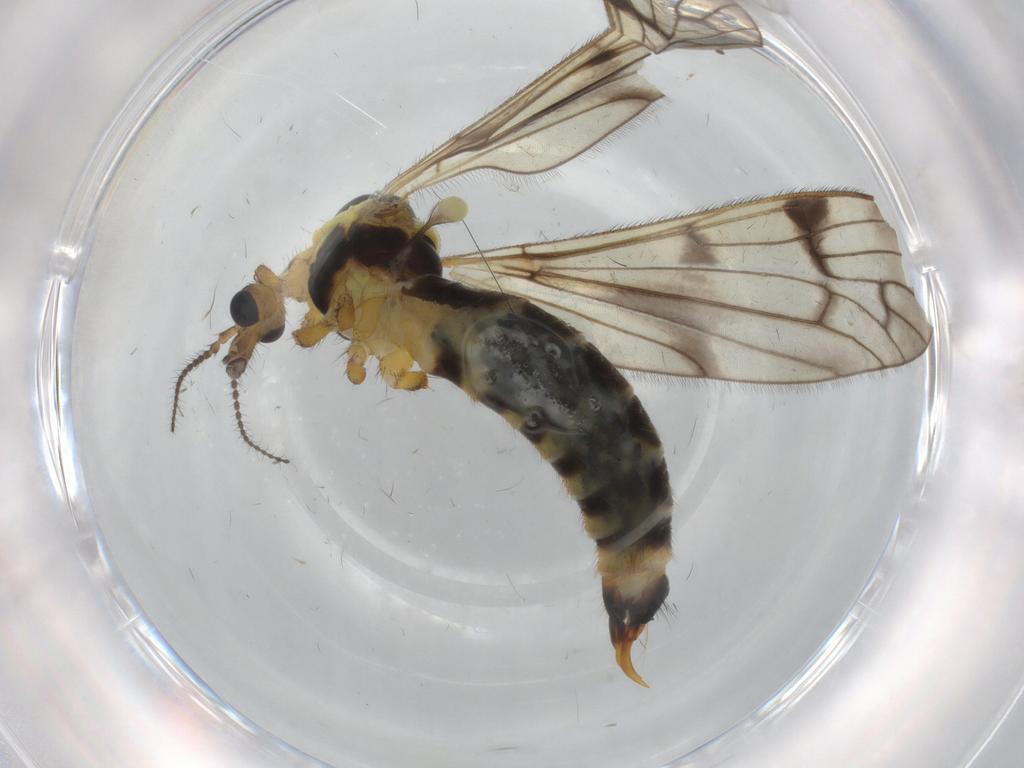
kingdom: Animalia
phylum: Arthropoda
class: Insecta
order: Diptera
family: Limoniidae
